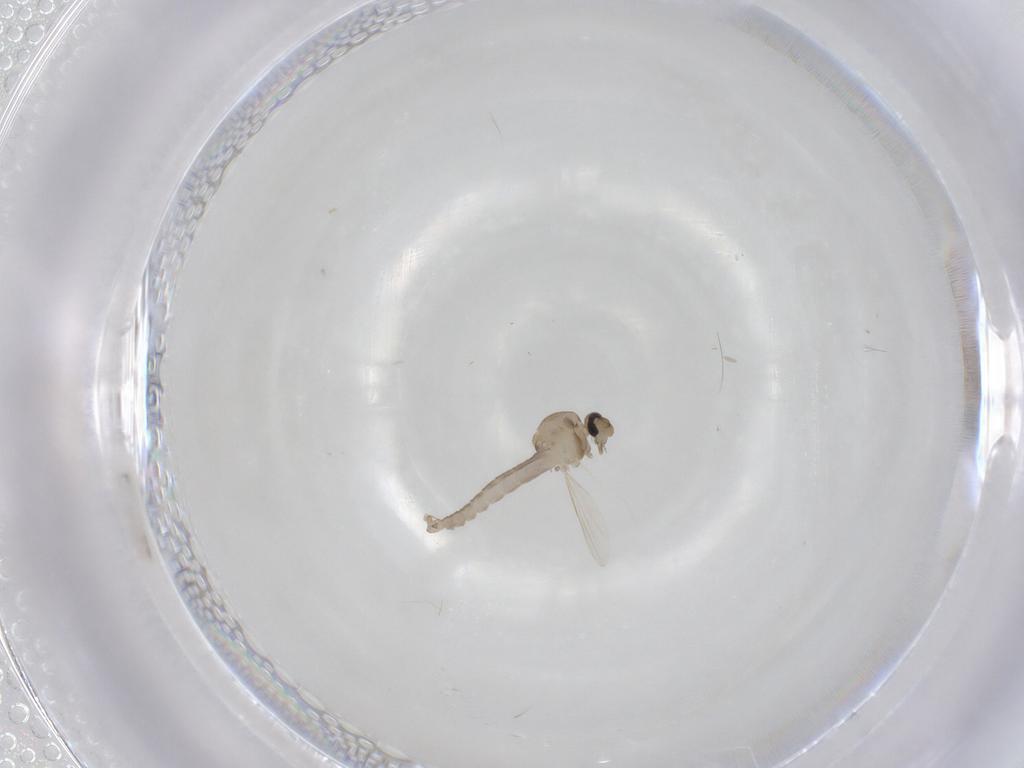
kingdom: Animalia
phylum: Arthropoda
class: Insecta
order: Diptera
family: Ceratopogonidae
